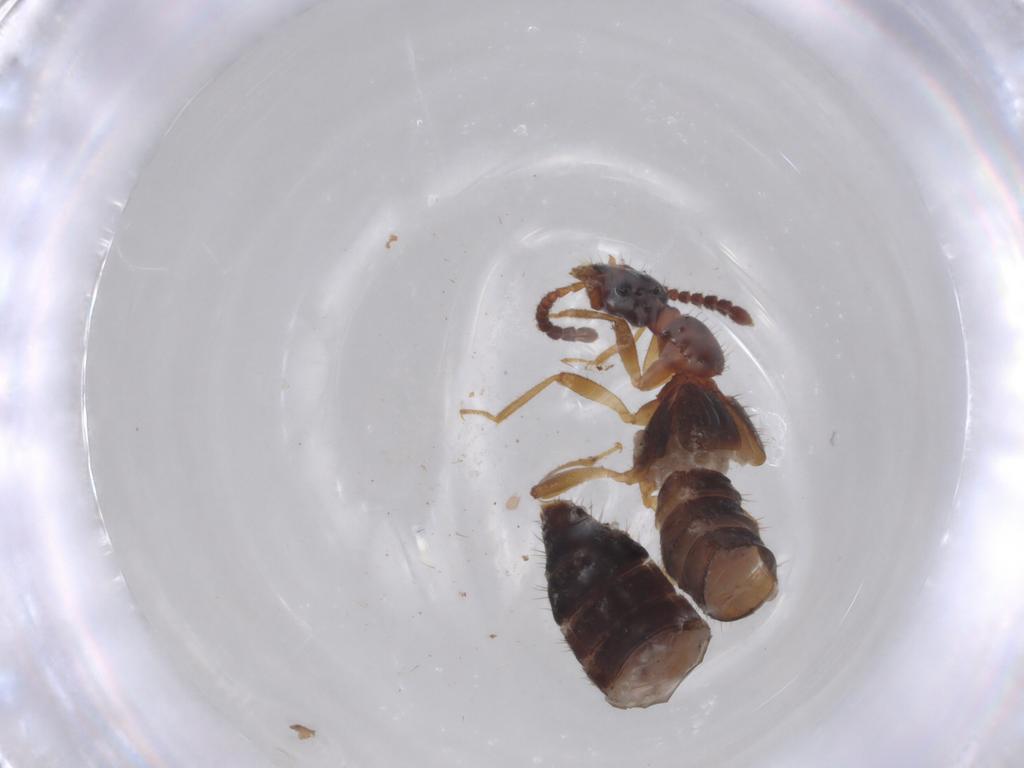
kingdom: Animalia
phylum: Arthropoda
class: Insecta
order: Coleoptera
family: Staphylinidae
